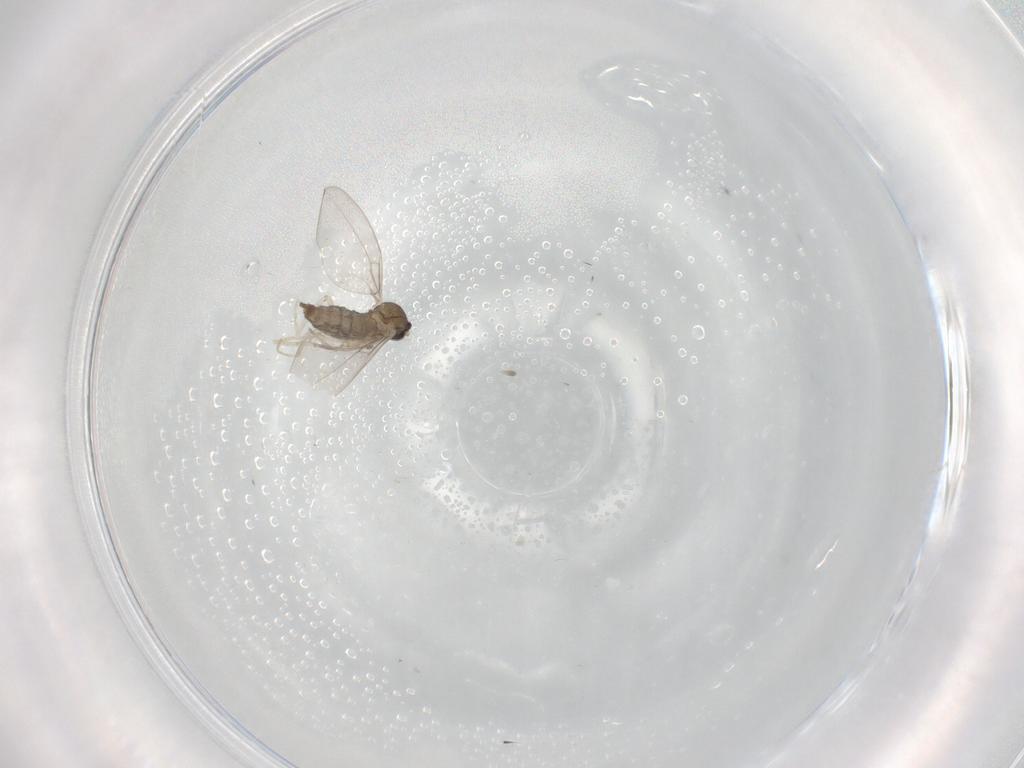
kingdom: Animalia
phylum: Arthropoda
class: Insecta
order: Diptera
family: Cecidomyiidae
